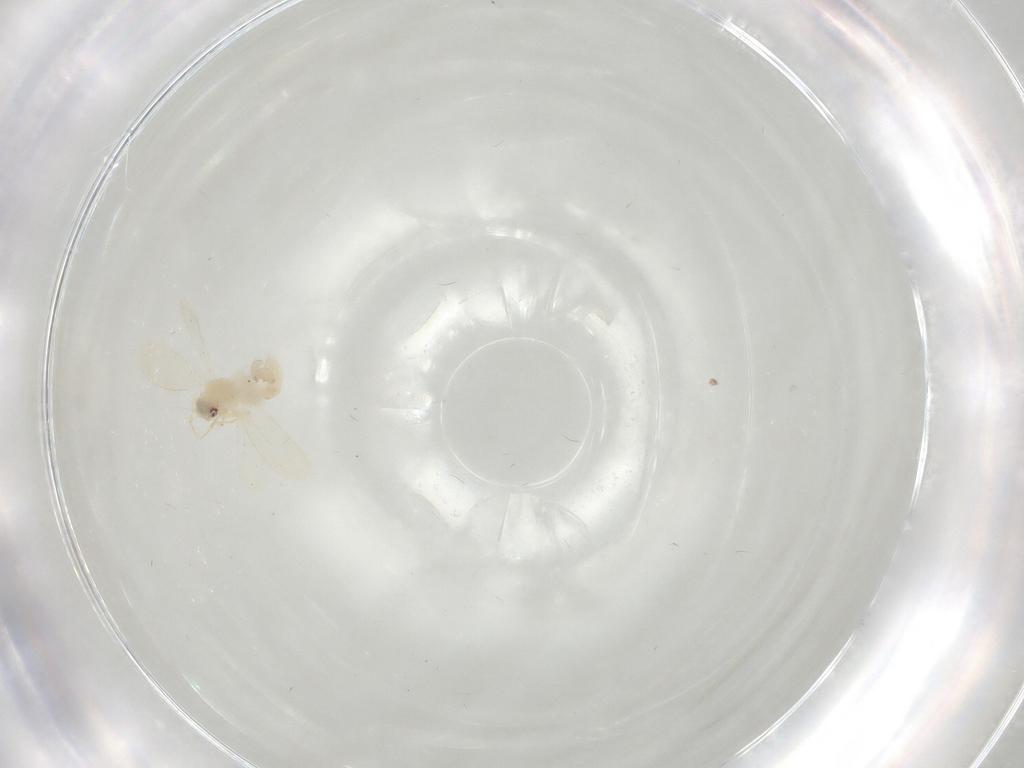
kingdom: Animalia
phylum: Arthropoda
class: Insecta
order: Hemiptera
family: Aleyrodidae
